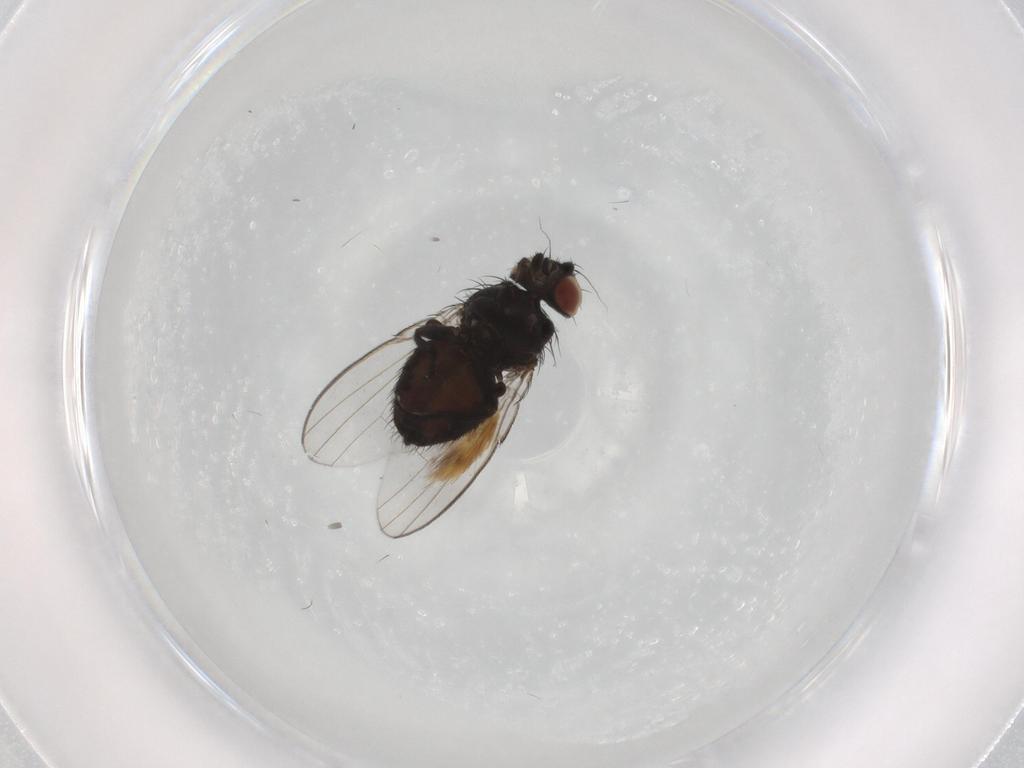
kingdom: Animalia
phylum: Arthropoda
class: Insecta
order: Diptera
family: Milichiidae
